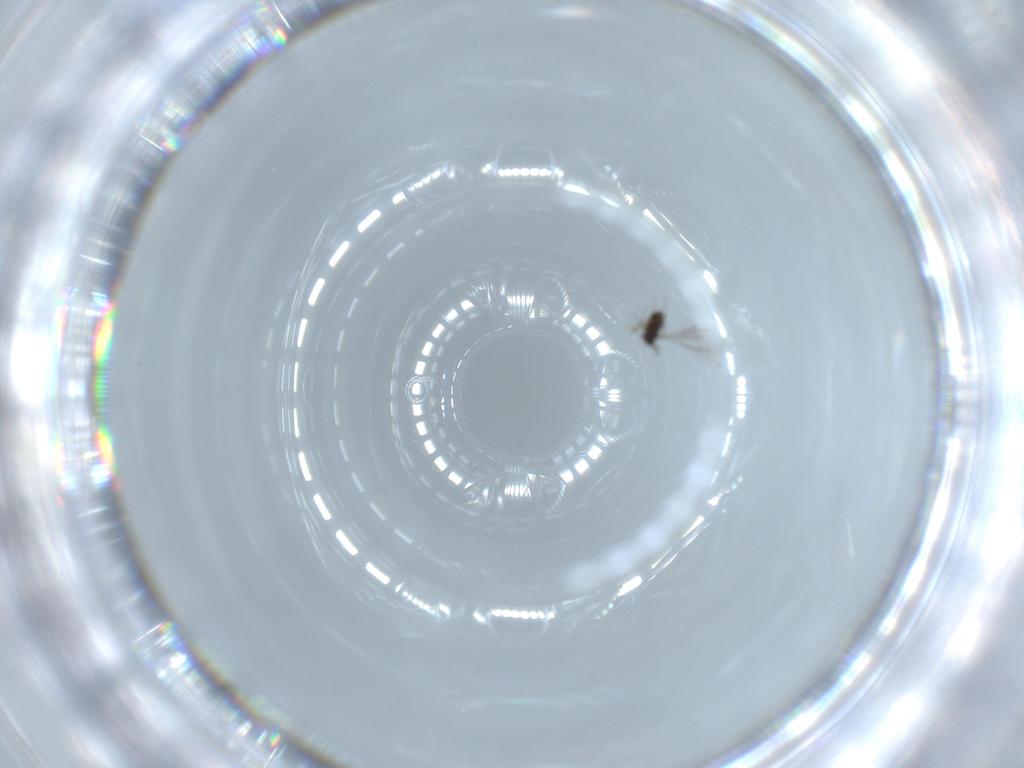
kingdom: Animalia
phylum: Arthropoda
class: Insecta
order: Hymenoptera
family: Mymaridae
